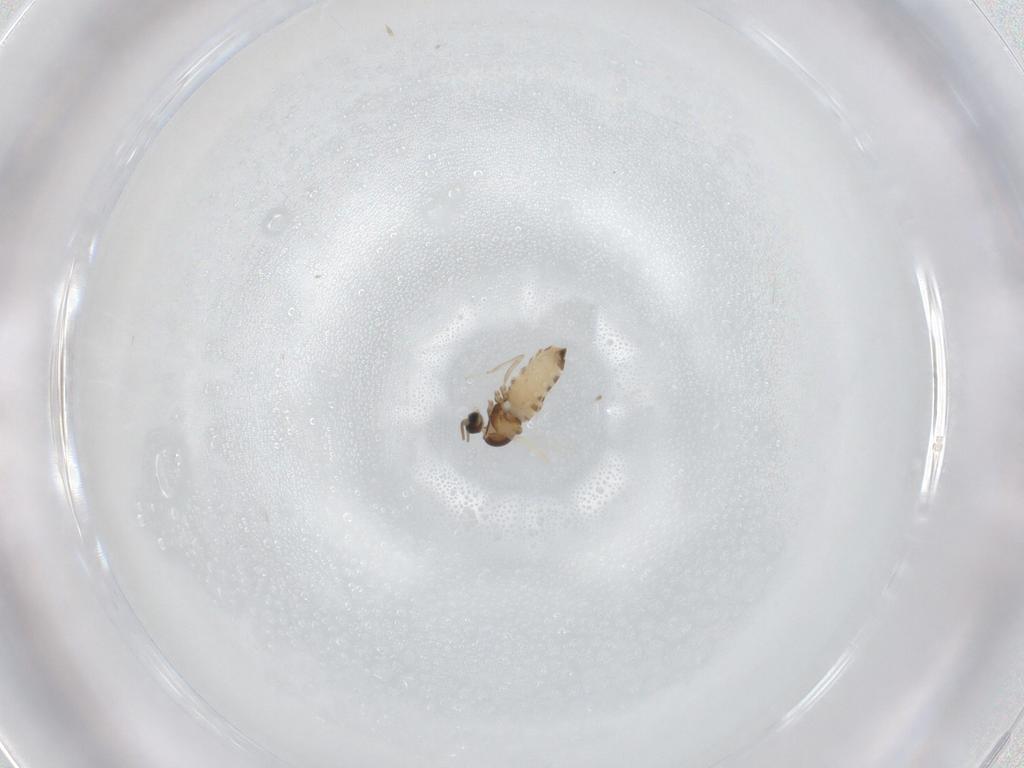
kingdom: Animalia
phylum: Arthropoda
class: Insecta
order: Diptera
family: Cecidomyiidae
